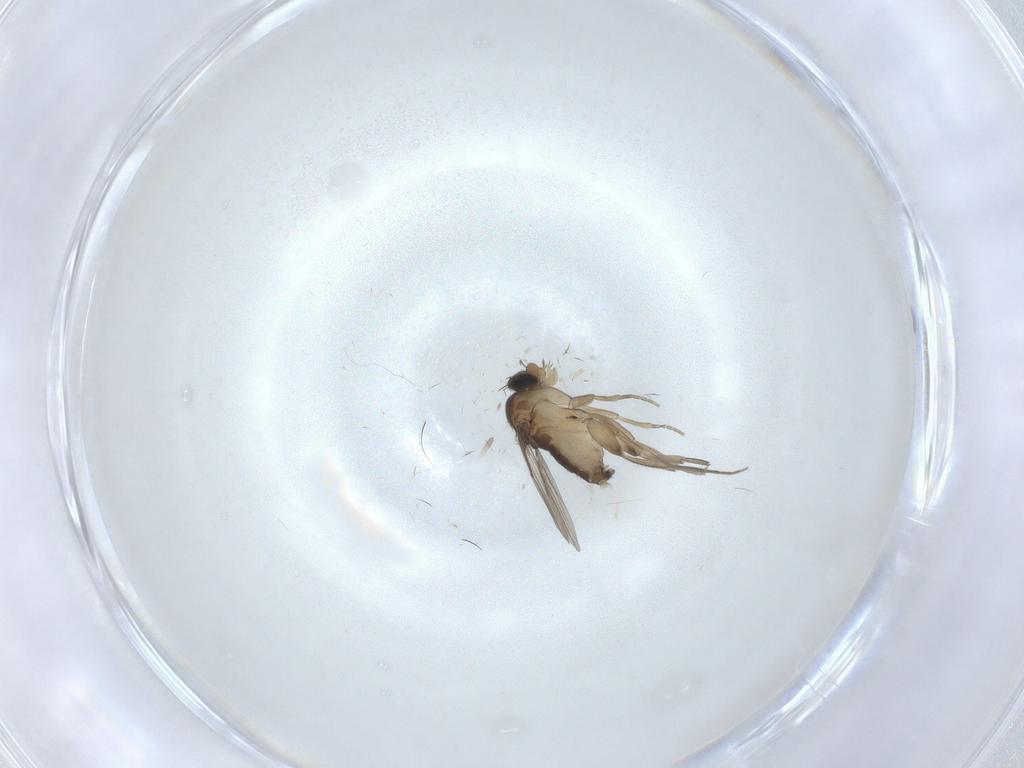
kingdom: Animalia
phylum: Arthropoda
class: Insecta
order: Diptera
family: Phoridae
